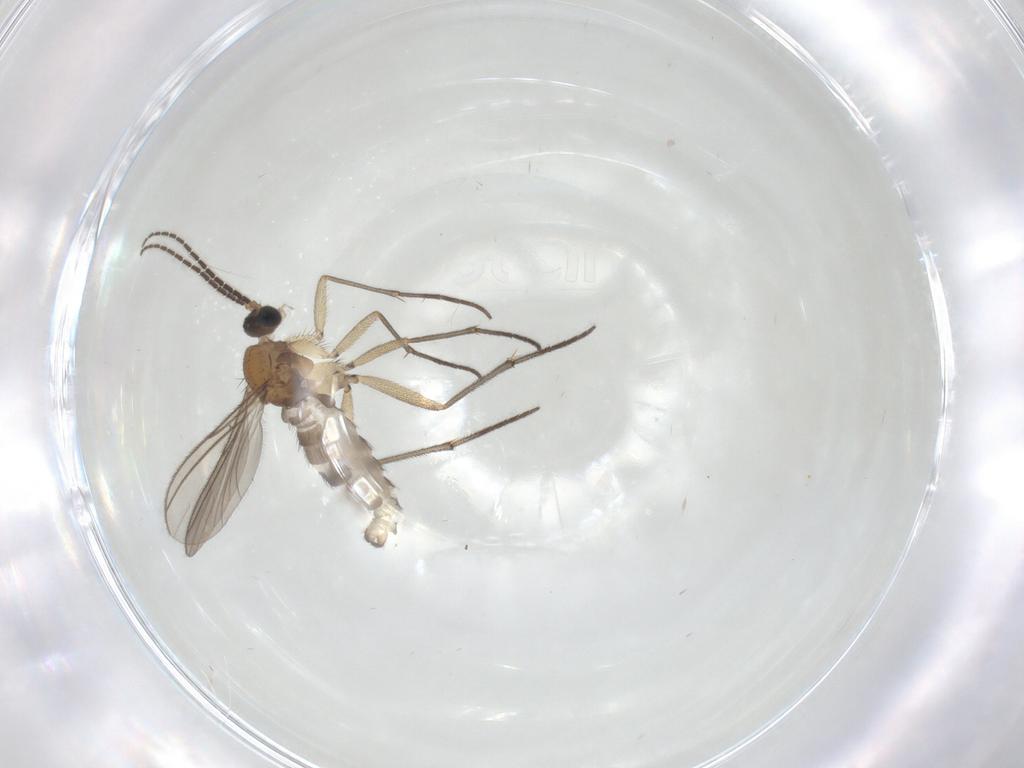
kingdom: Animalia
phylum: Arthropoda
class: Insecta
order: Diptera
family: Sciaridae
